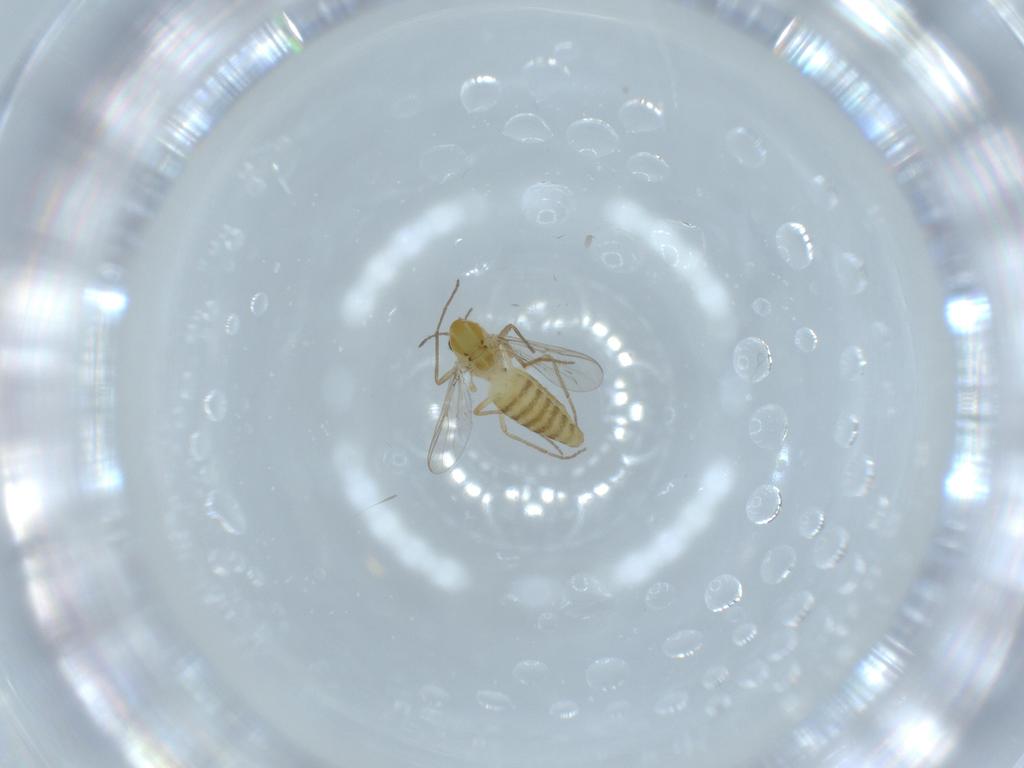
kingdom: Animalia
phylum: Arthropoda
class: Insecta
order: Diptera
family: Chironomidae
